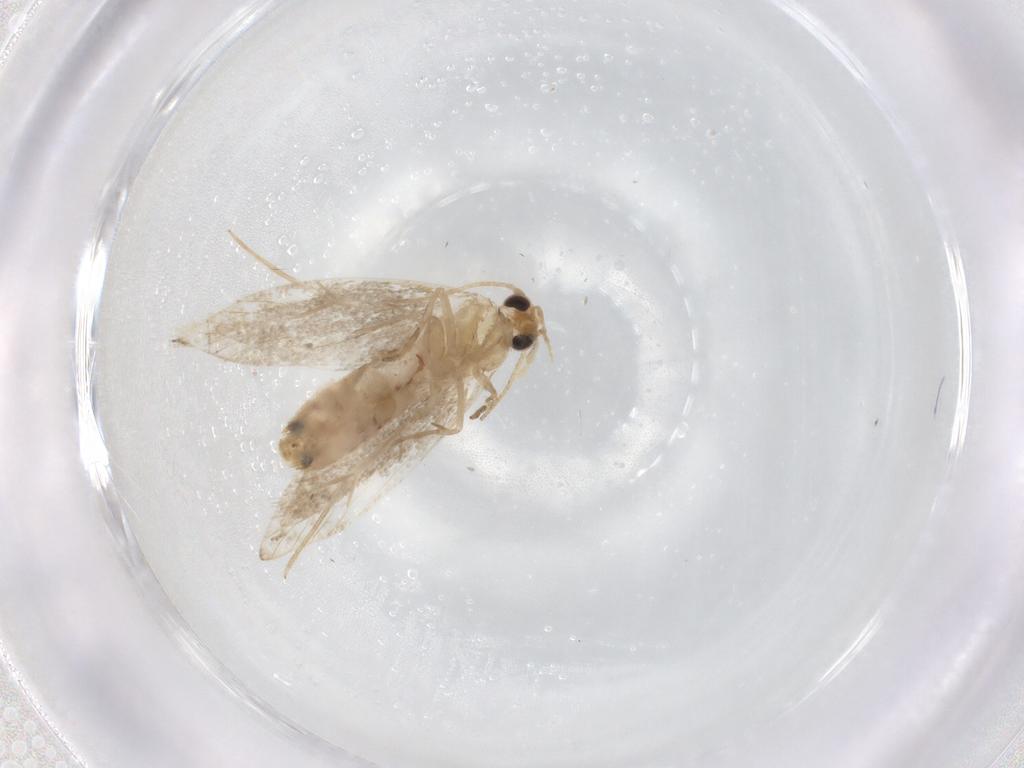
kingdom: Animalia
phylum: Arthropoda
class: Insecta
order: Lepidoptera
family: Dryadaulidae
